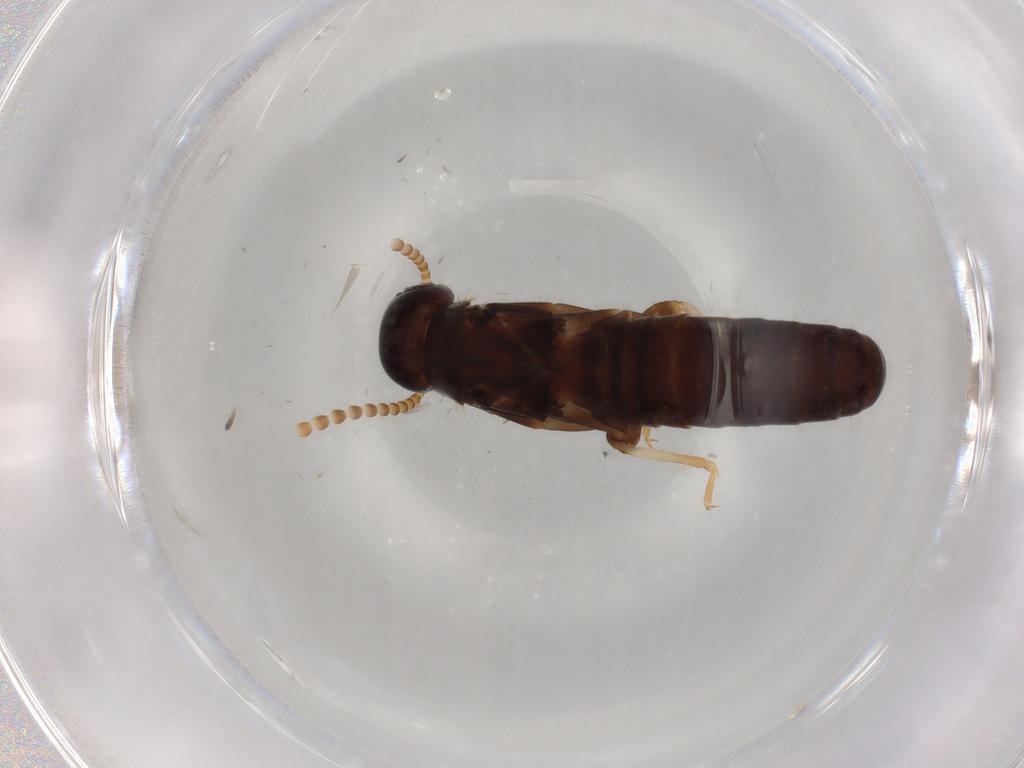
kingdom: Animalia
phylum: Arthropoda
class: Insecta
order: Blattodea
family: Kalotermitidae
